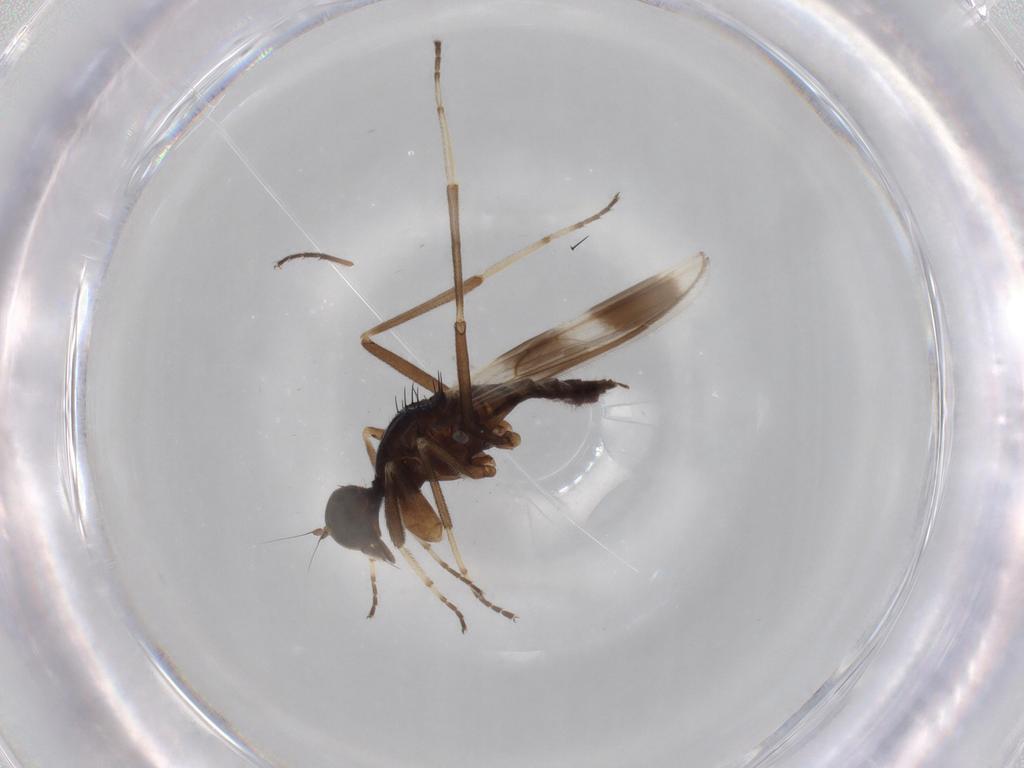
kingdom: Animalia
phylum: Arthropoda
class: Insecta
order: Diptera
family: Hybotidae
